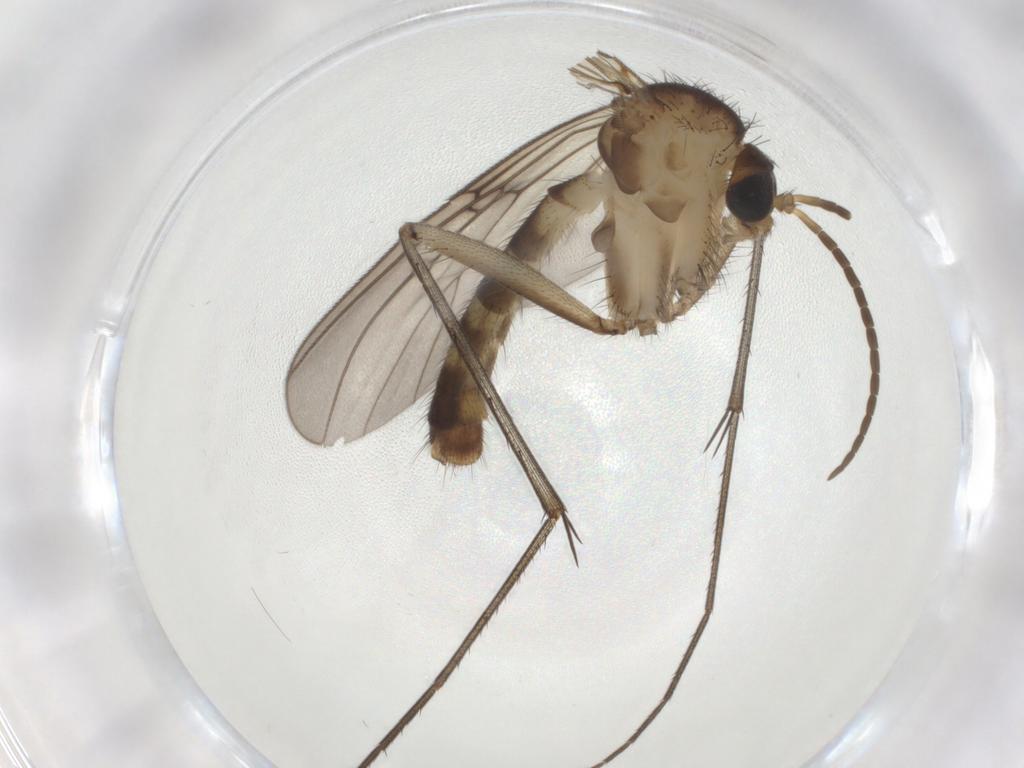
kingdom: Animalia
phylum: Arthropoda
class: Insecta
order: Diptera
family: Mycetophilidae
